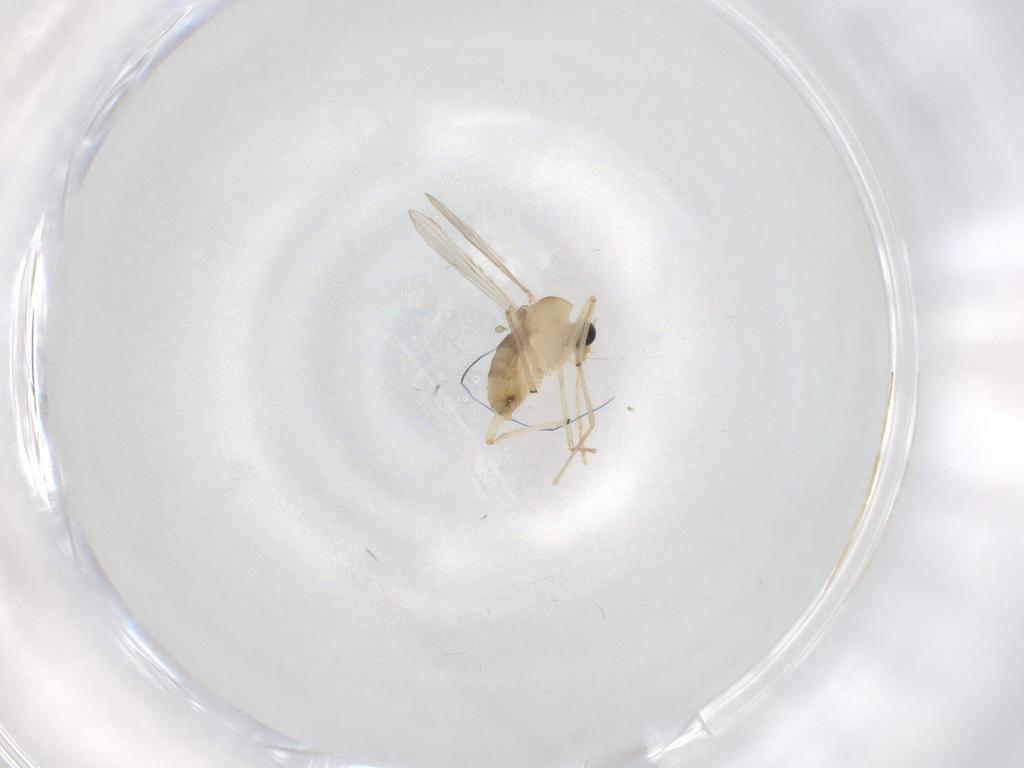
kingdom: Animalia
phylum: Arthropoda
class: Insecta
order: Diptera
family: Chironomidae
